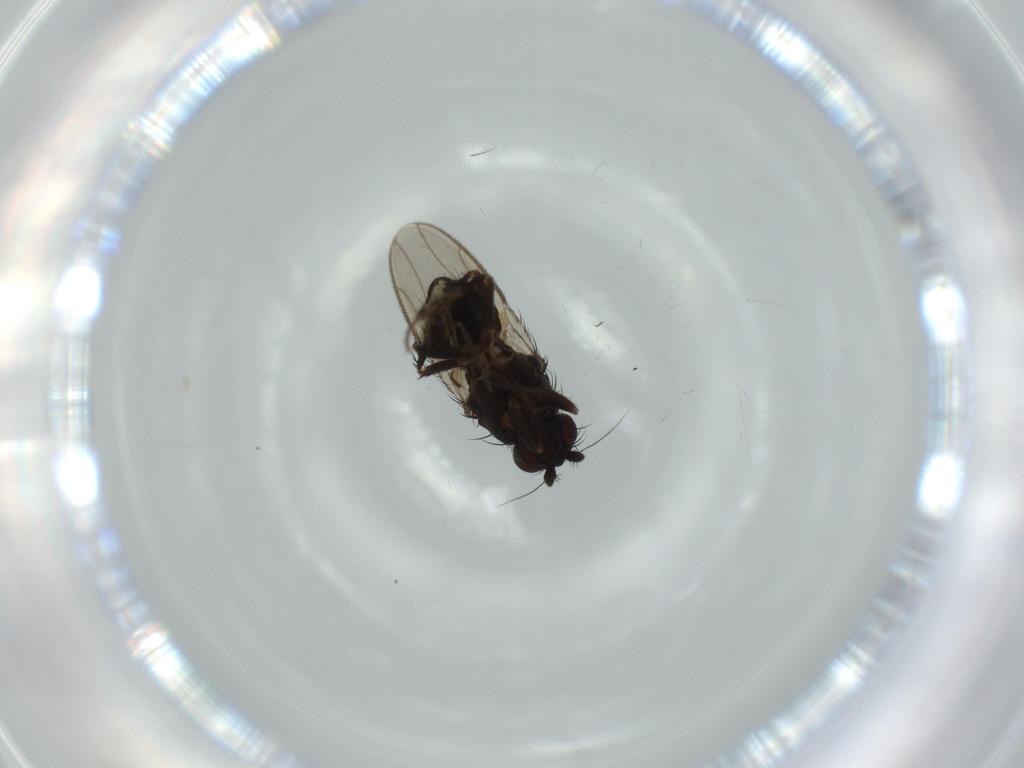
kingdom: Animalia
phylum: Arthropoda
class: Insecta
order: Diptera
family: Sphaeroceridae
